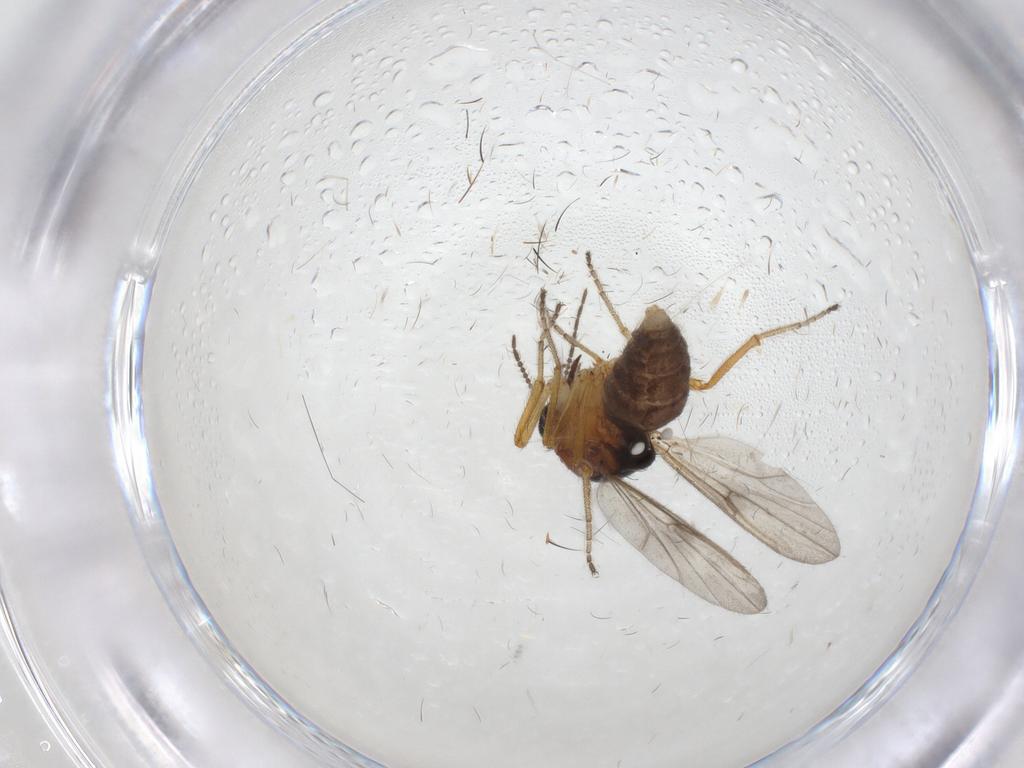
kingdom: Animalia
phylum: Arthropoda
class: Insecta
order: Diptera
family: Ceratopogonidae
